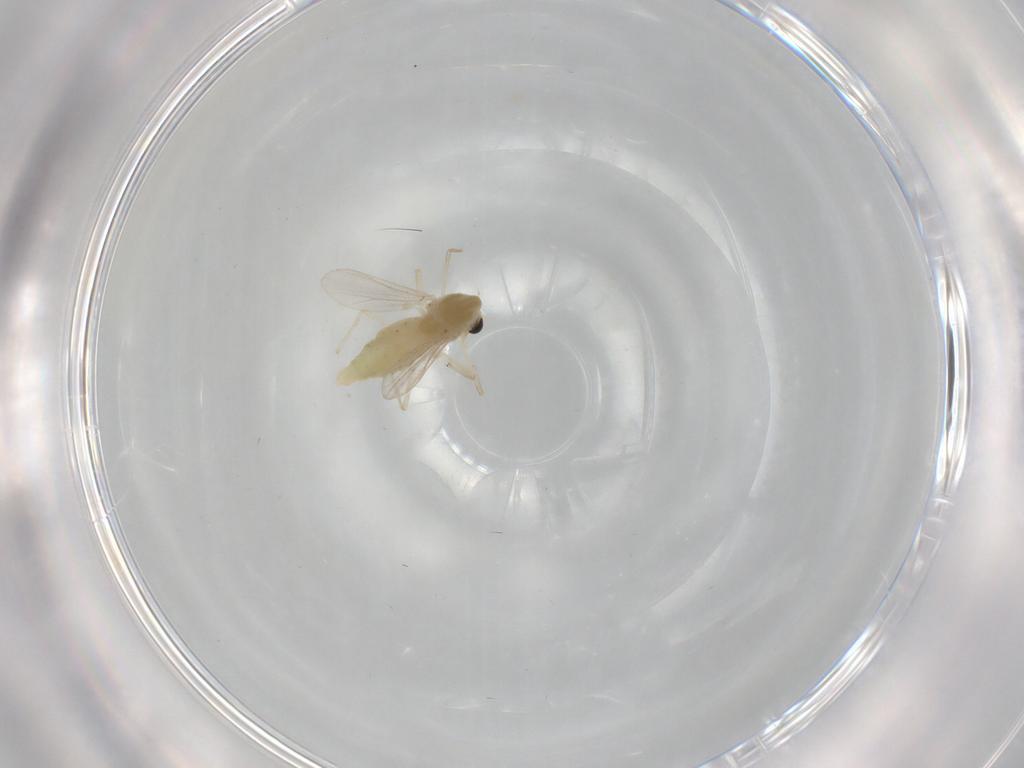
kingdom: Animalia
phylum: Arthropoda
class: Insecta
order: Diptera
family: Chironomidae
